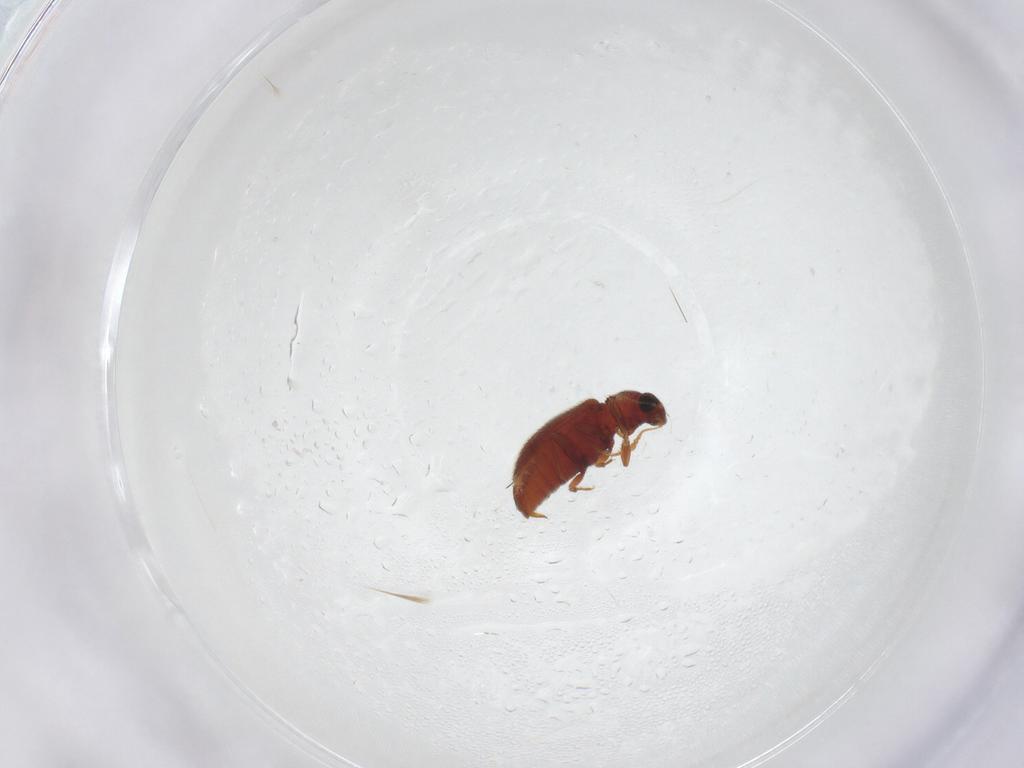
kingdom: Animalia
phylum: Arthropoda
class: Insecta
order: Coleoptera
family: Latridiidae
